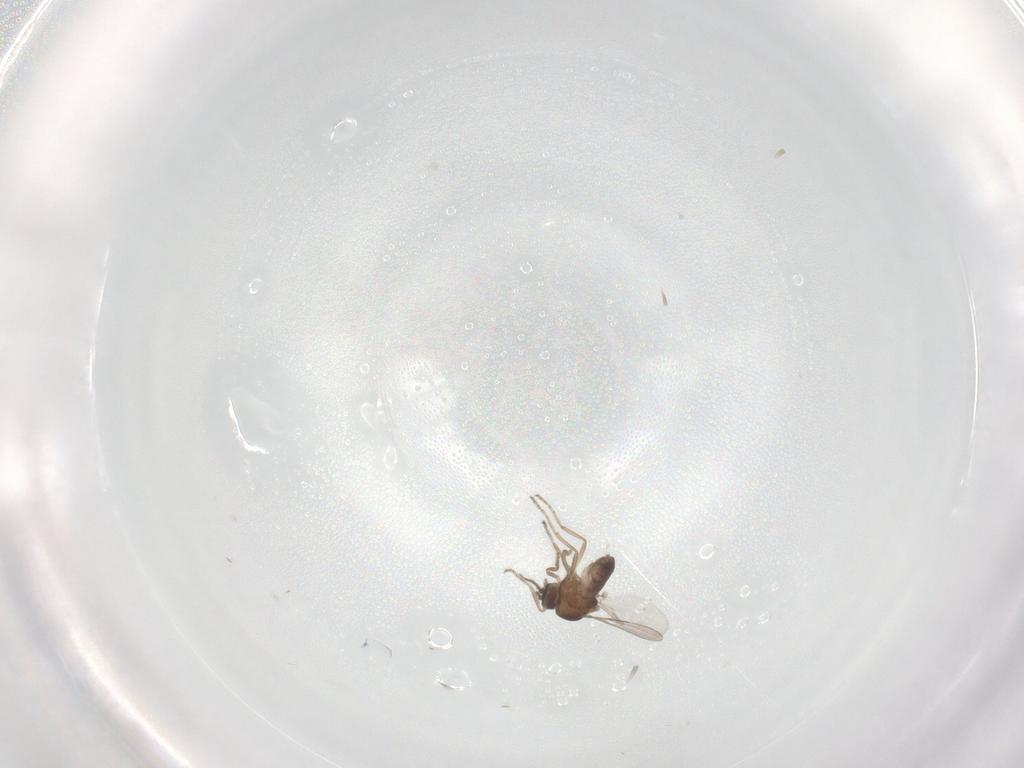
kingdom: Animalia
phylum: Arthropoda
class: Insecta
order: Diptera
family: Ceratopogonidae
